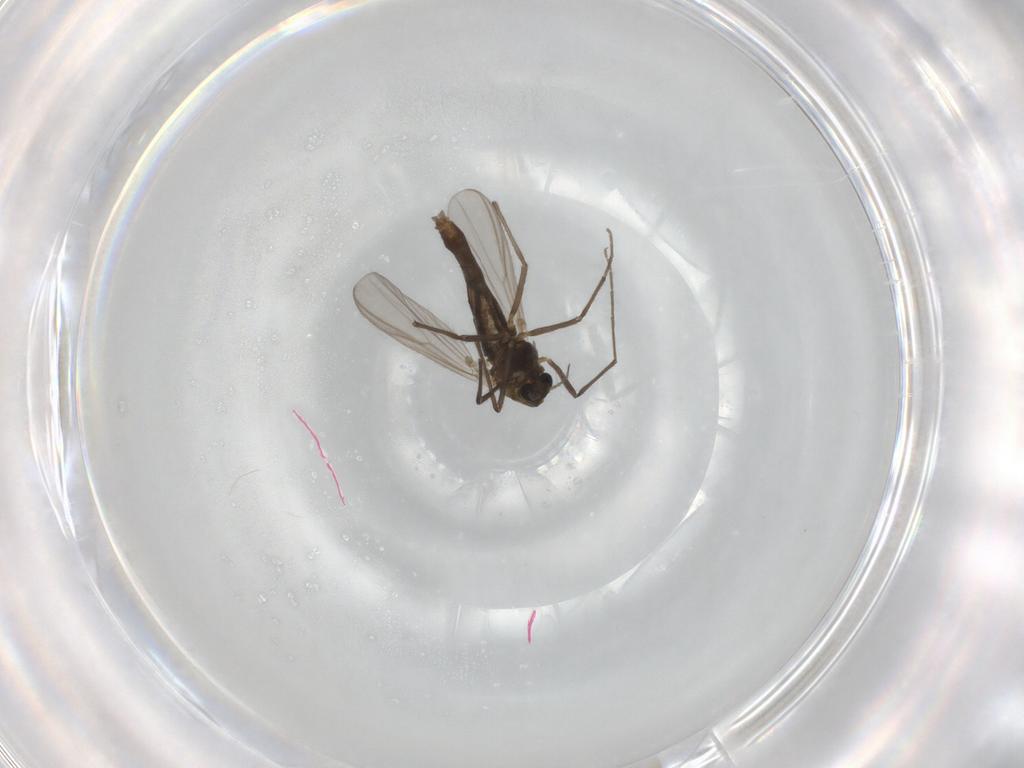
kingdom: Animalia
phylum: Arthropoda
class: Insecta
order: Diptera
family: Chironomidae
